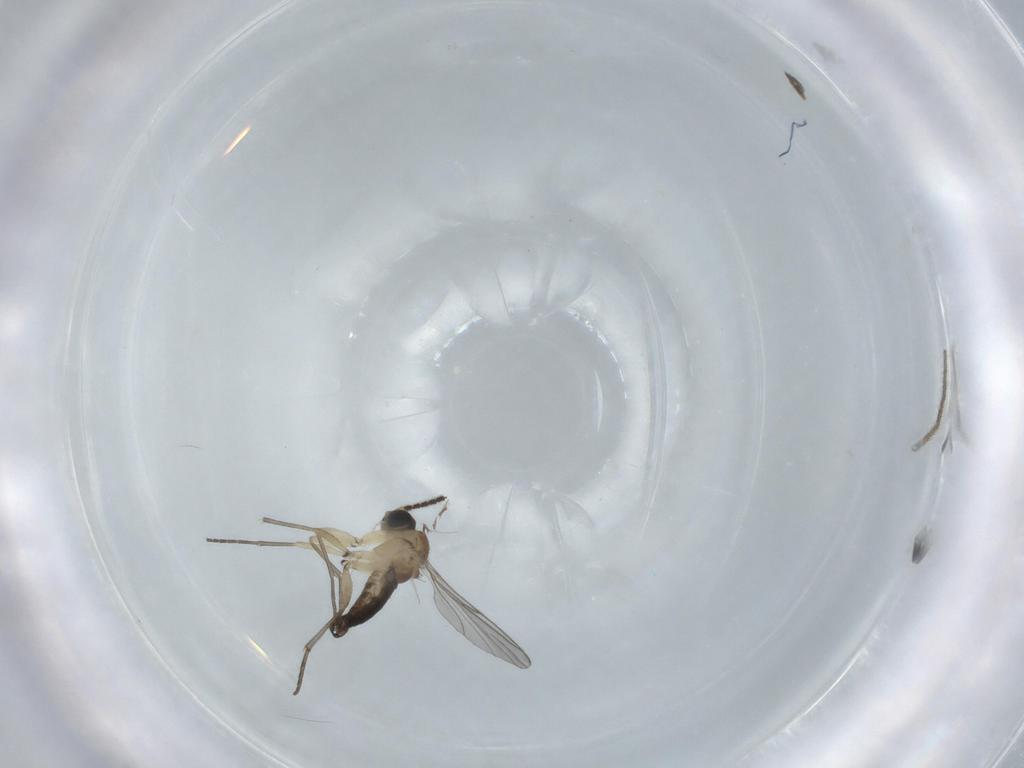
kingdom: Animalia
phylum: Arthropoda
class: Insecta
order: Diptera
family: Sciaridae
